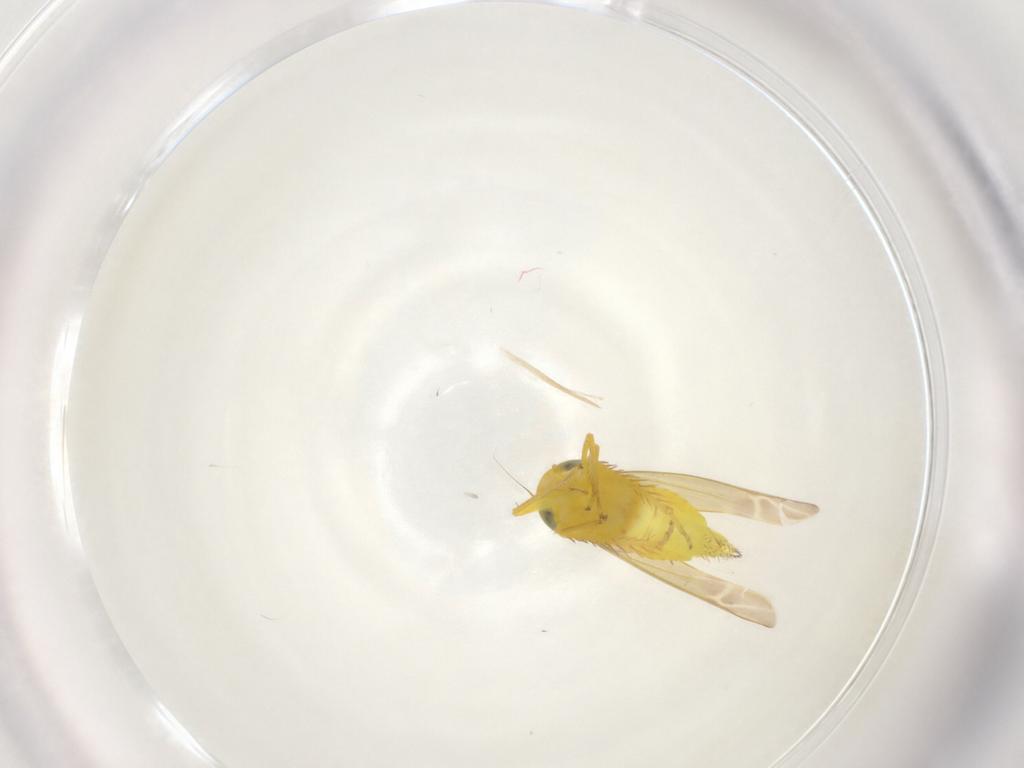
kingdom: Animalia
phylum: Arthropoda
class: Insecta
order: Hemiptera
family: Cicadellidae
